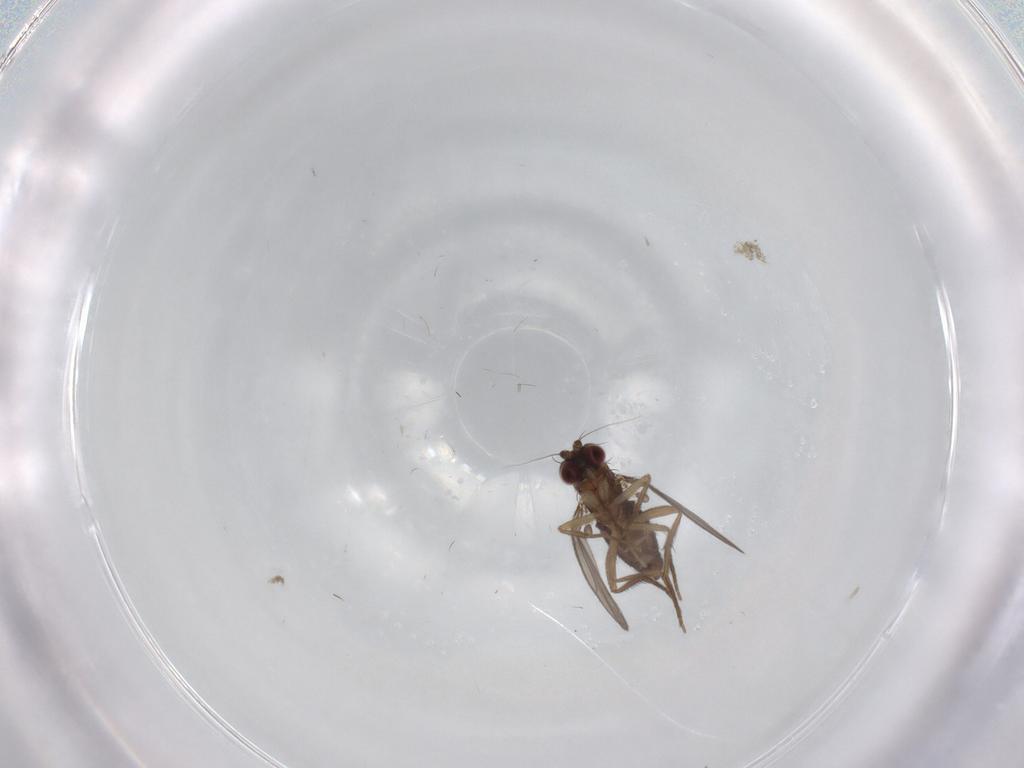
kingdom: Animalia
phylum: Arthropoda
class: Insecta
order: Diptera
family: Dolichopodidae
